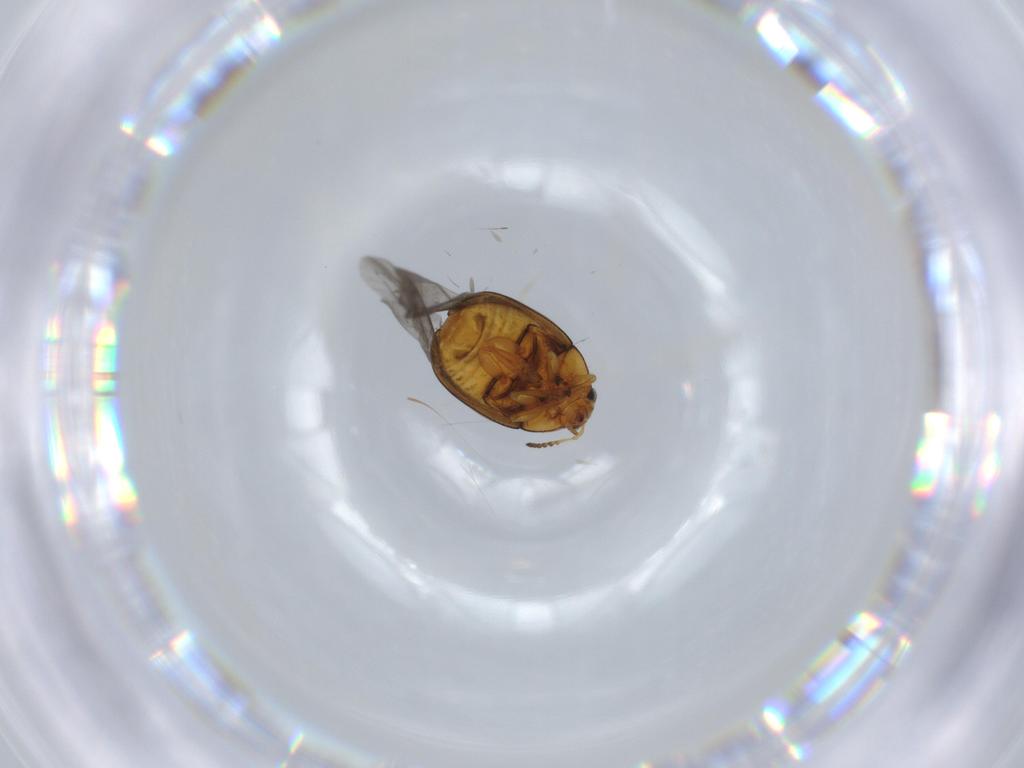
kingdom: Animalia
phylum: Arthropoda
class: Insecta
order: Coleoptera
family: Chrysomelidae
